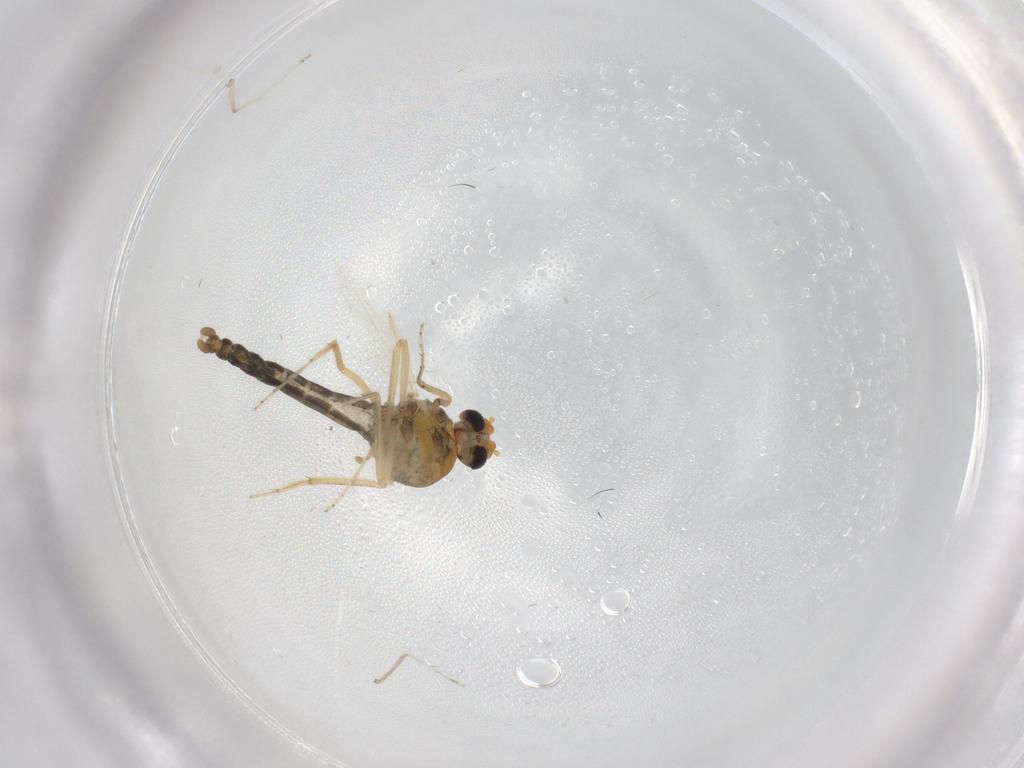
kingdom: Animalia
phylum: Arthropoda
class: Insecta
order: Diptera
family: Ceratopogonidae
